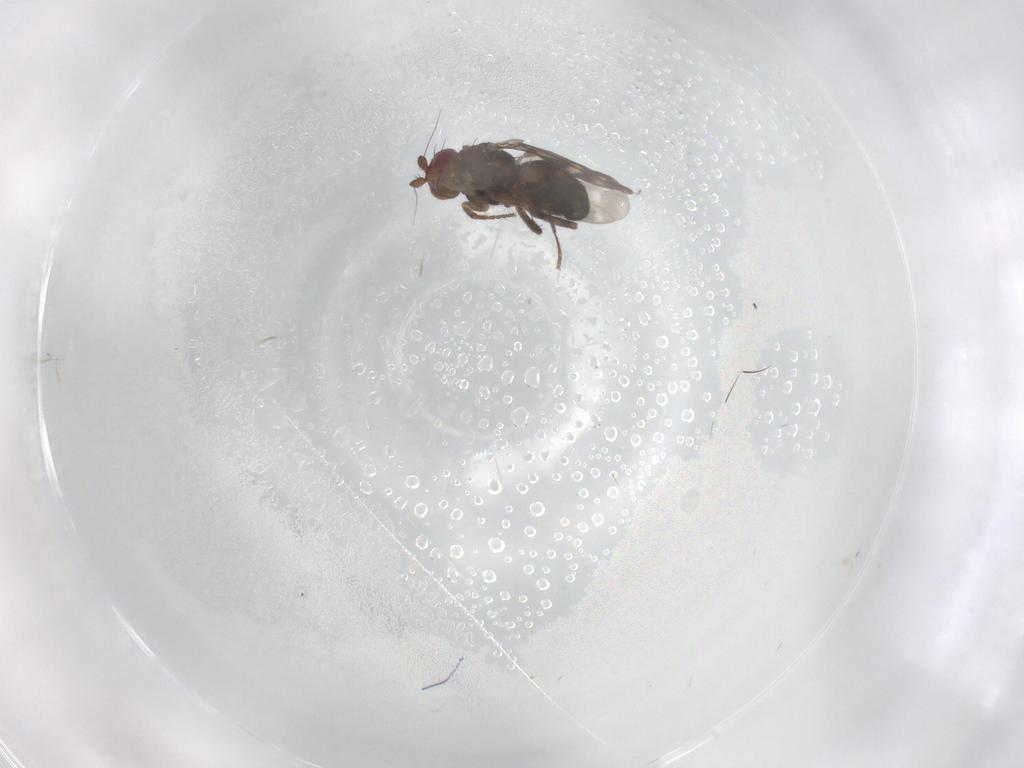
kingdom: Animalia
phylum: Arthropoda
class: Insecta
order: Diptera
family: Sphaeroceridae
